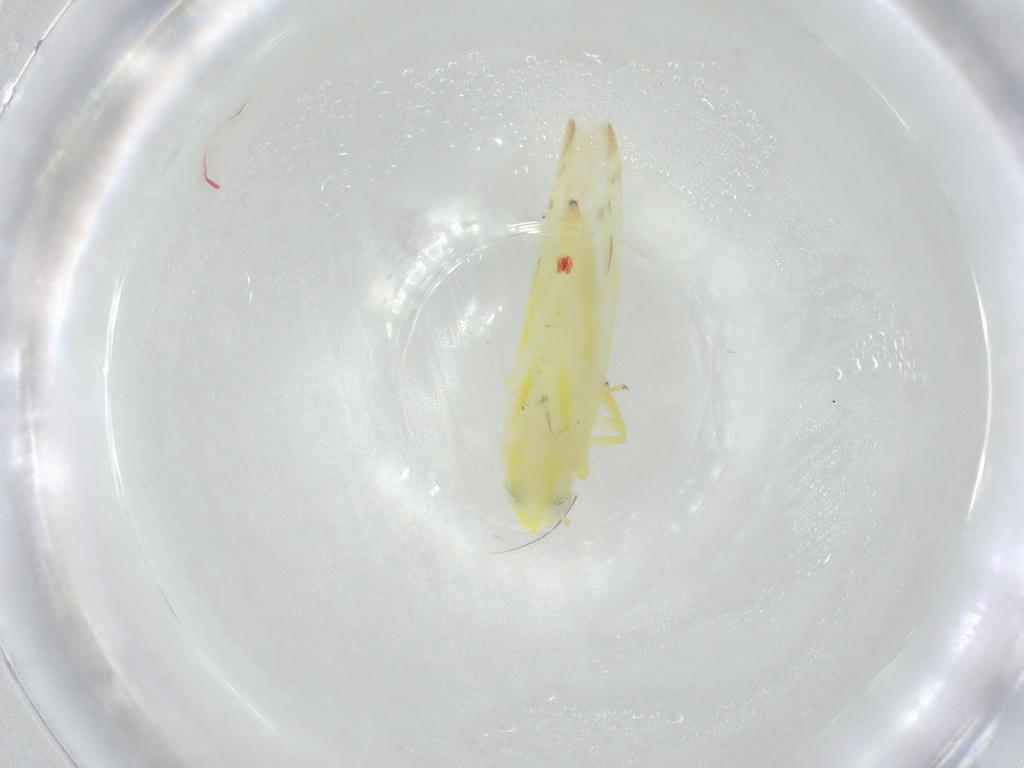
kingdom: Animalia
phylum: Arthropoda
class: Insecta
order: Hemiptera
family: Cicadellidae
